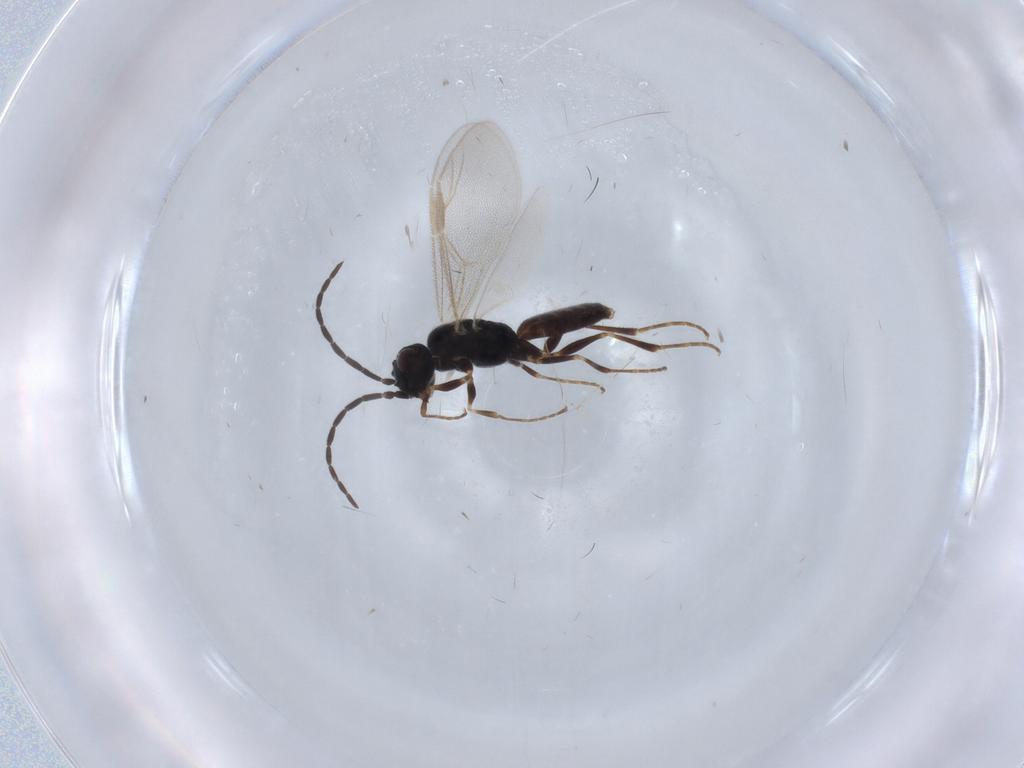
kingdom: Animalia
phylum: Arthropoda
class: Insecta
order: Hymenoptera
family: Dryinidae
